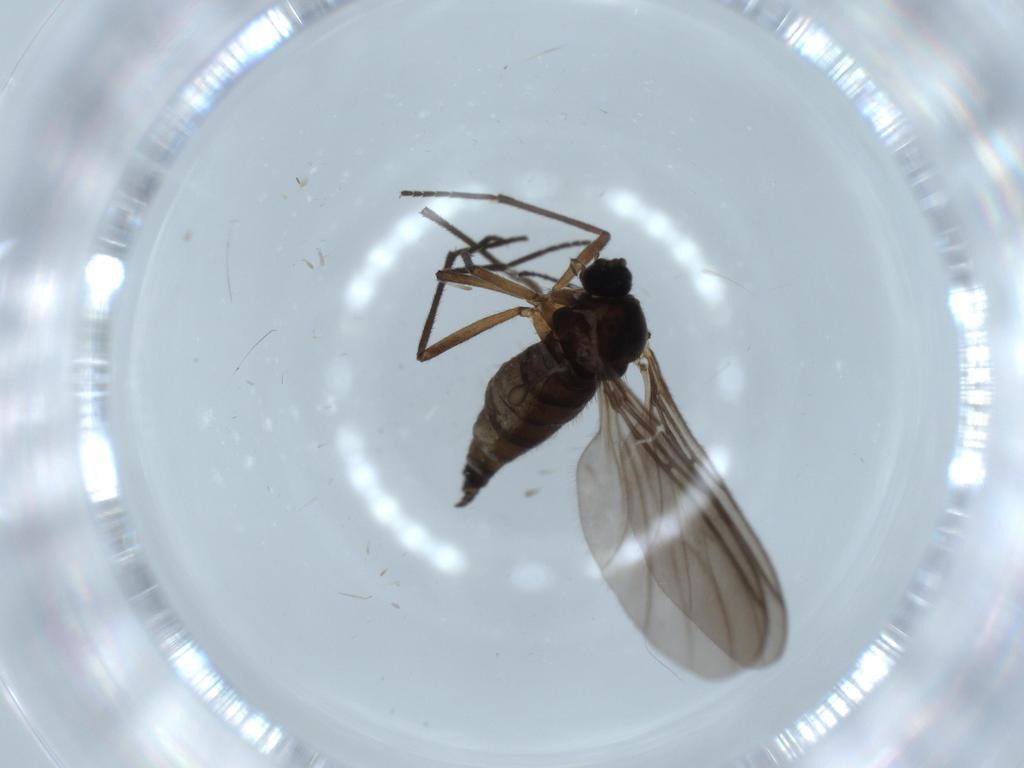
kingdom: Animalia
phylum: Arthropoda
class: Insecta
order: Diptera
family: Sciaridae
